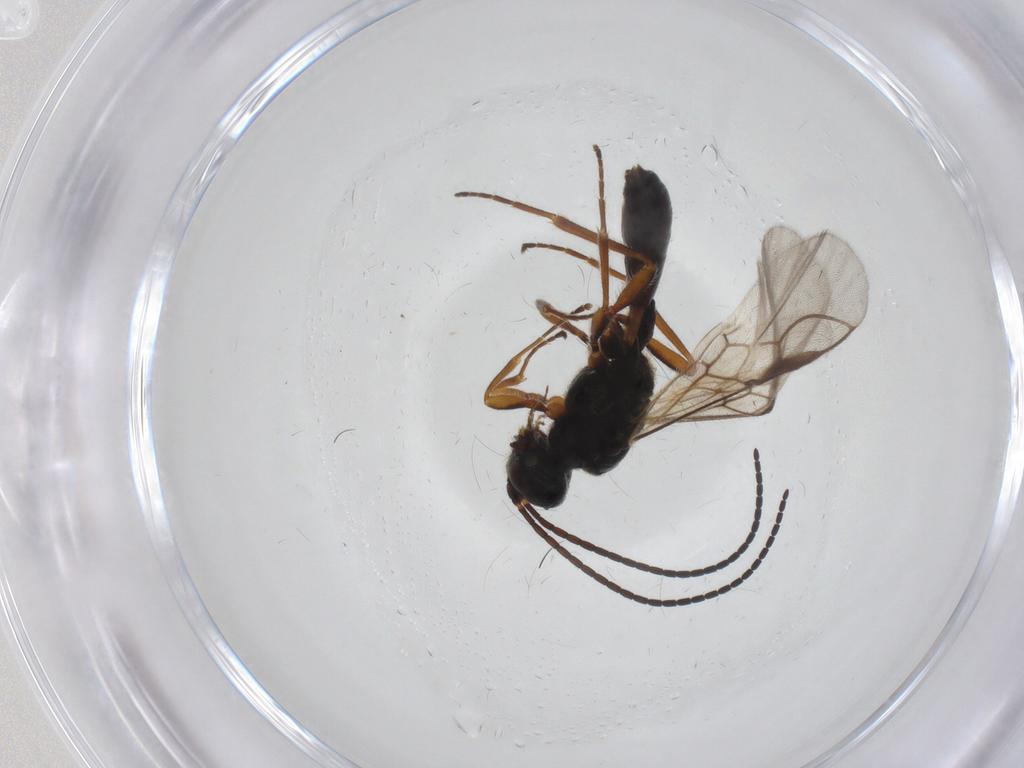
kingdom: Animalia
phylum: Arthropoda
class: Insecta
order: Hymenoptera
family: Braconidae
